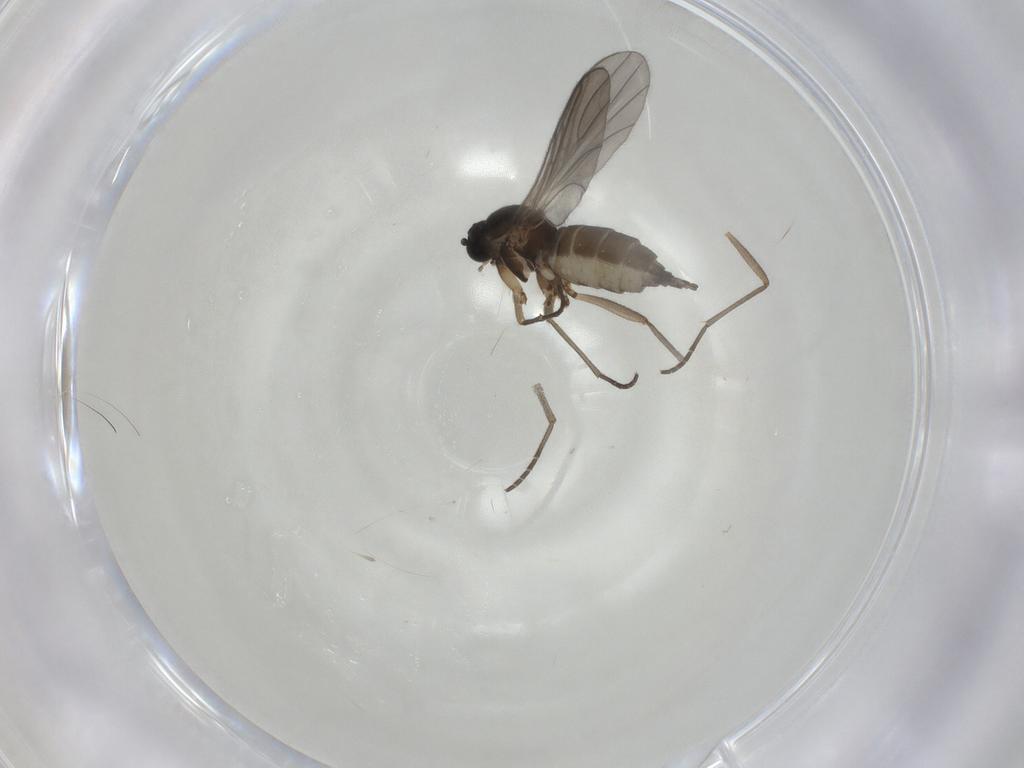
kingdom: Animalia
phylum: Arthropoda
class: Insecta
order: Diptera
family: Sciaridae
